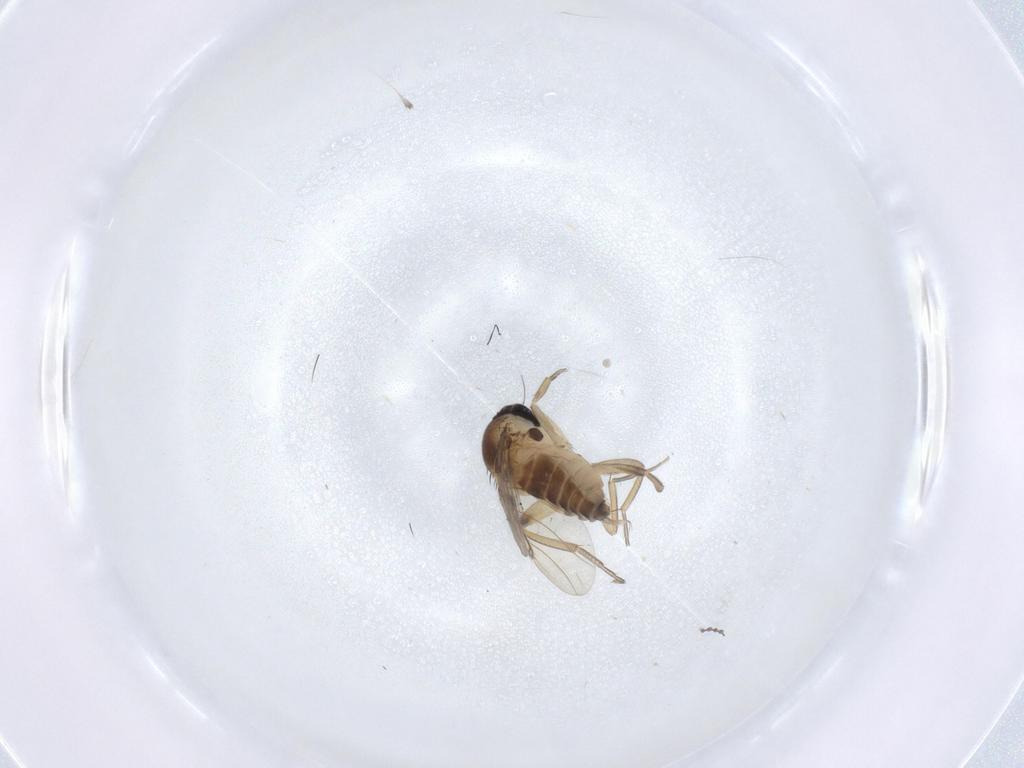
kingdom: Animalia
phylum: Arthropoda
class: Insecta
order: Diptera
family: Phoridae
